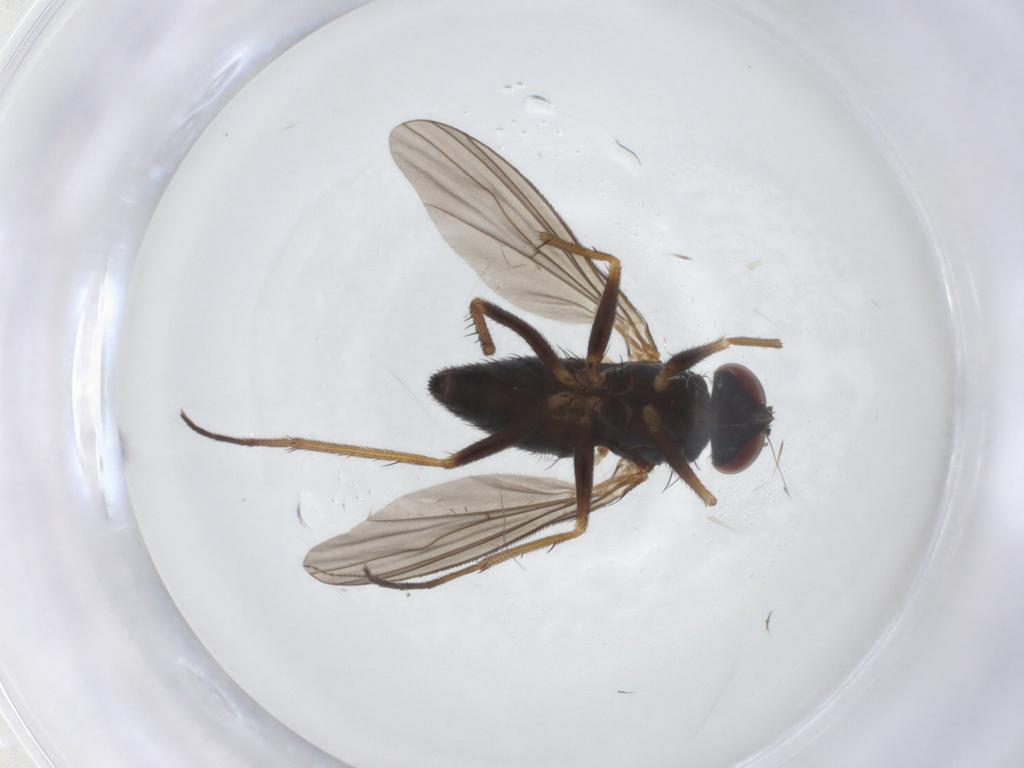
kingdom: Animalia
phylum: Arthropoda
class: Insecta
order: Diptera
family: Dolichopodidae
